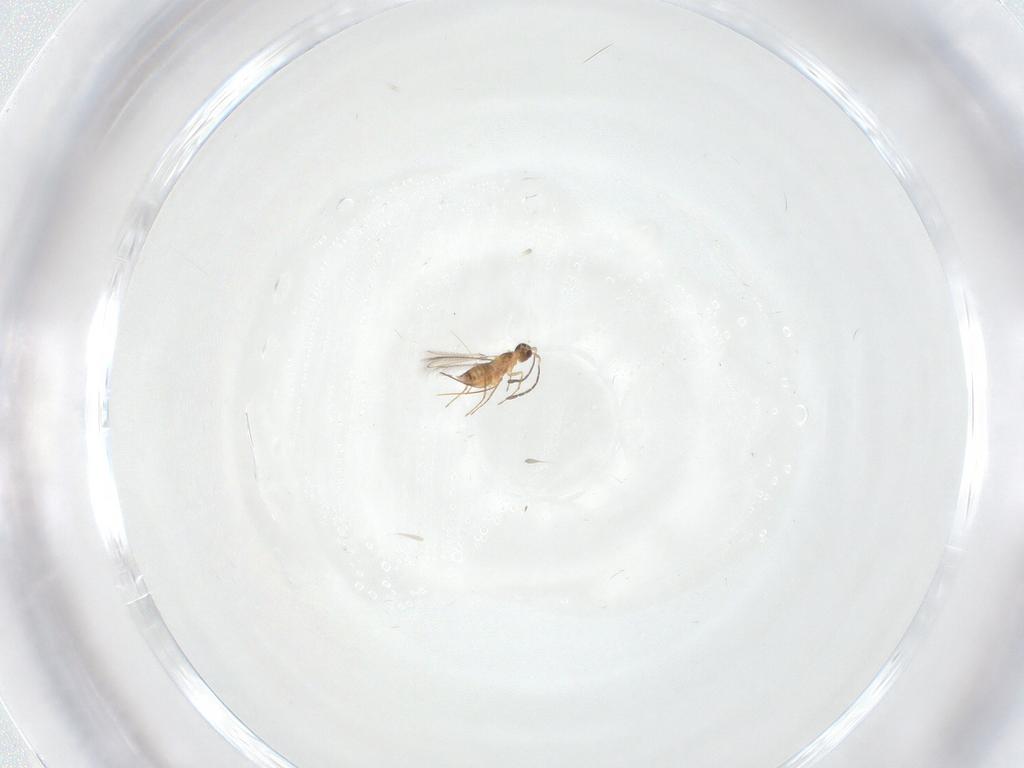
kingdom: Animalia
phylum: Arthropoda
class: Insecta
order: Hymenoptera
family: Mymaridae
